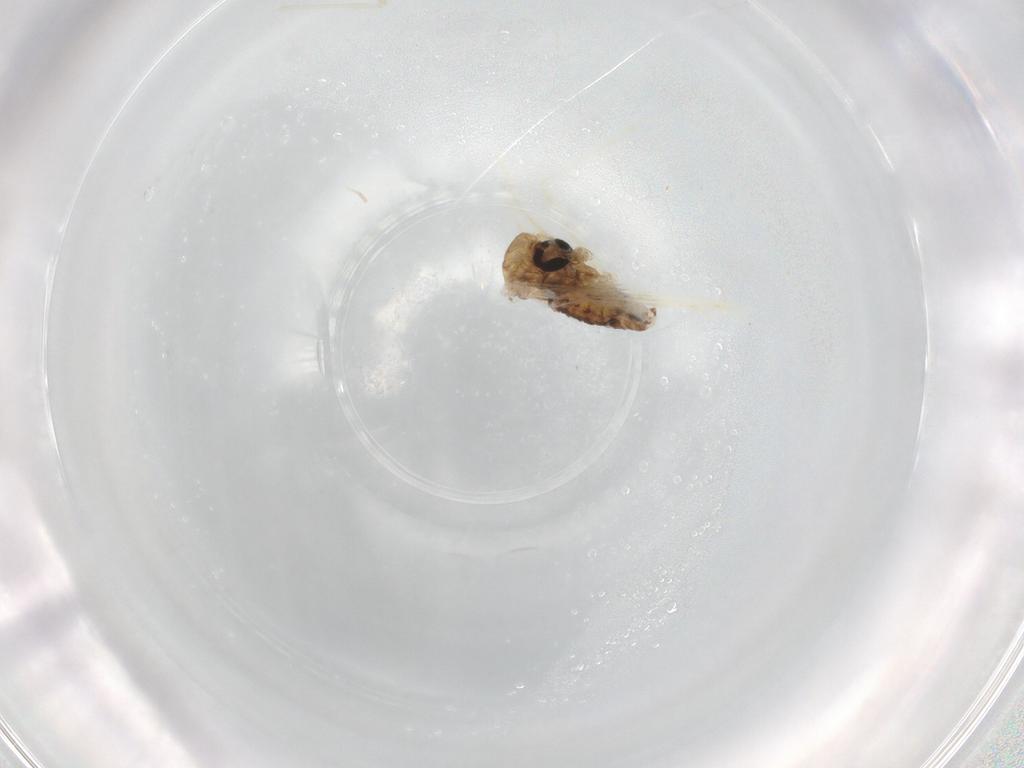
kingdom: Animalia
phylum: Arthropoda
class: Insecta
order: Diptera
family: Chironomidae
